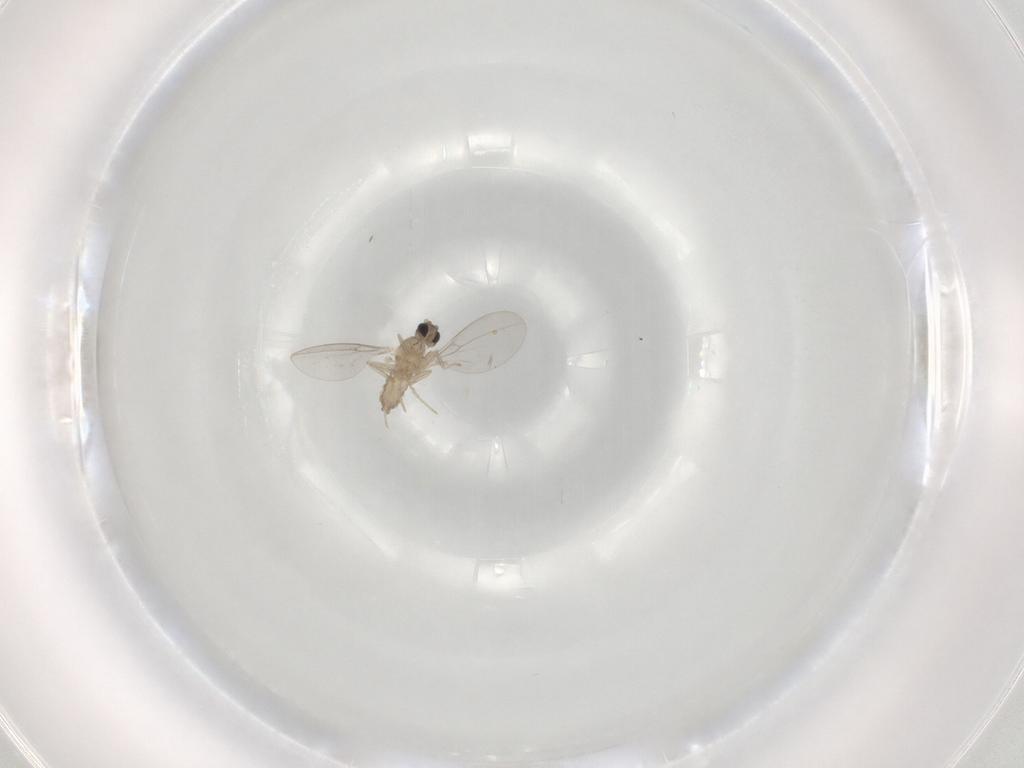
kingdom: Animalia
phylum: Arthropoda
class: Insecta
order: Diptera
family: Cecidomyiidae
